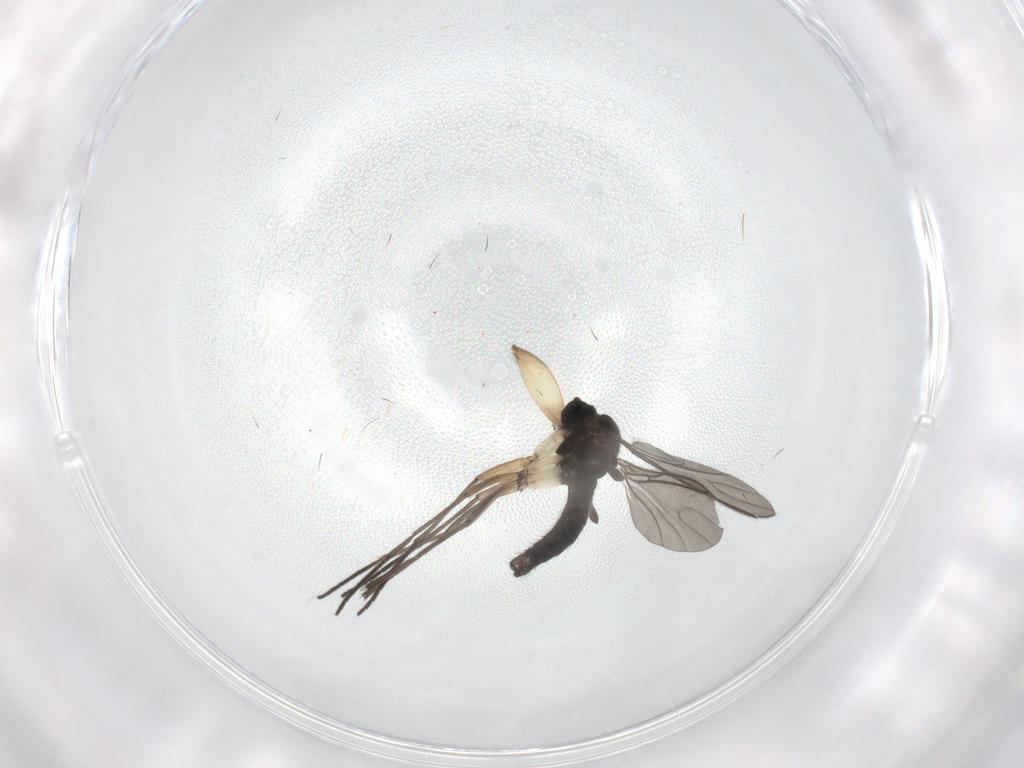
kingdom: Animalia
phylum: Arthropoda
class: Insecta
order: Diptera
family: Sciaridae
